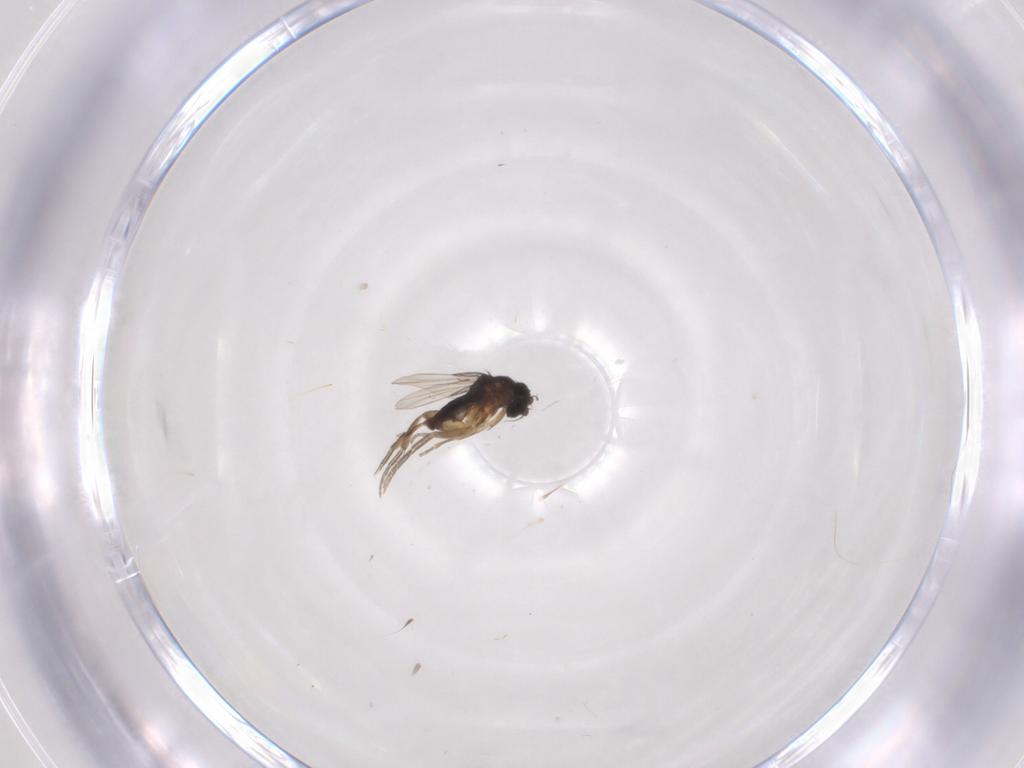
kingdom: Animalia
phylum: Arthropoda
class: Insecta
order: Diptera
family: Phoridae
